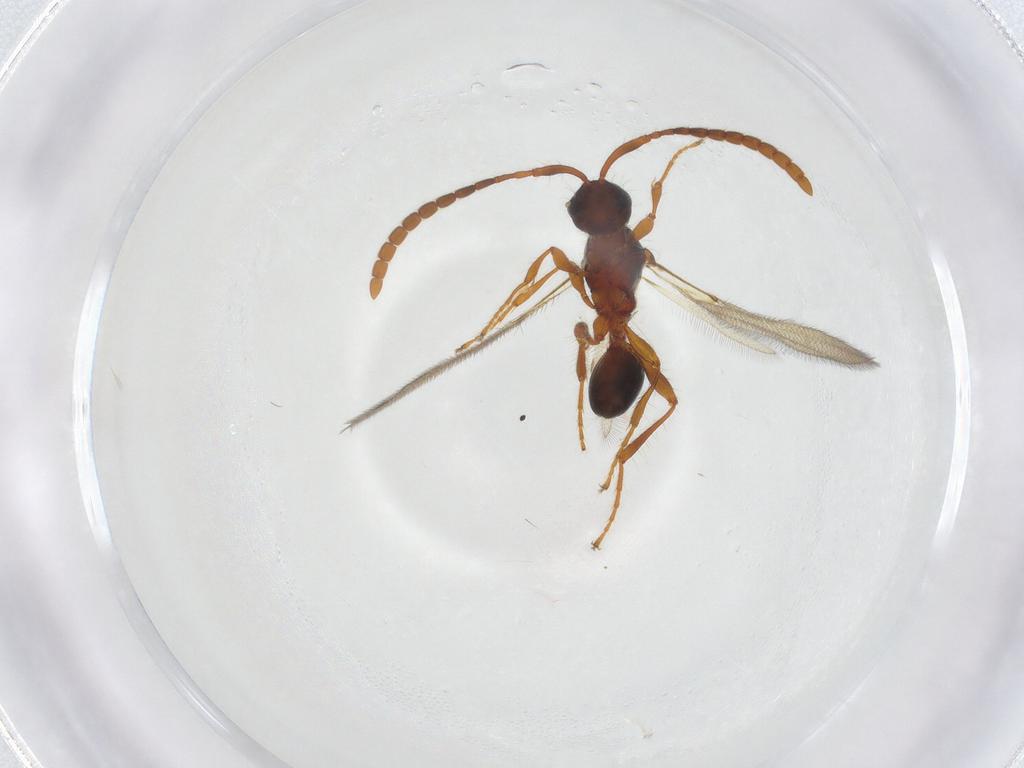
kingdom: Animalia
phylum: Arthropoda
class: Insecta
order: Hymenoptera
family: Diapriidae
